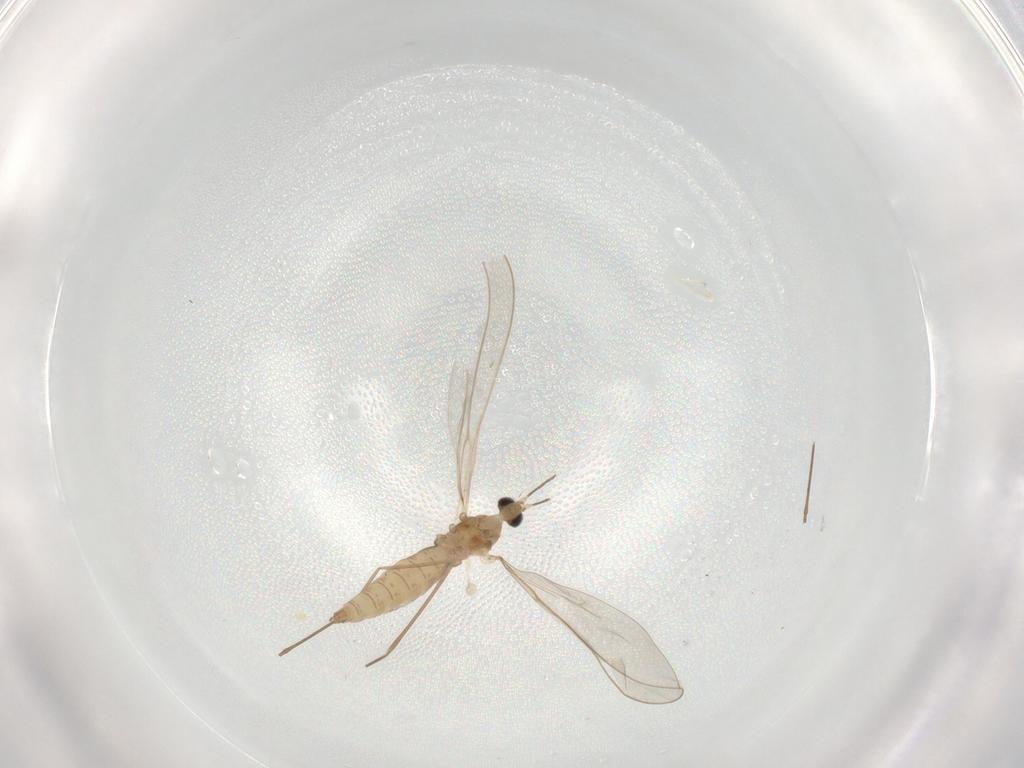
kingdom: Animalia
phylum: Arthropoda
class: Insecta
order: Diptera
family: Cecidomyiidae
